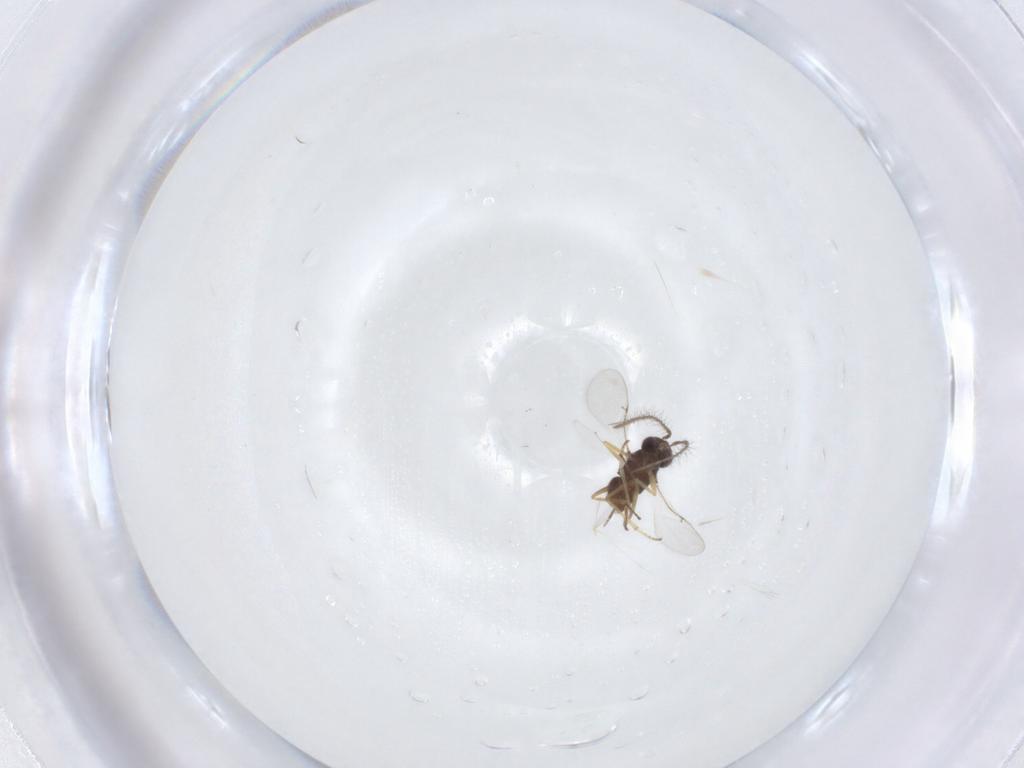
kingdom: Animalia
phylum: Arthropoda
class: Insecta
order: Hymenoptera
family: Encyrtidae
